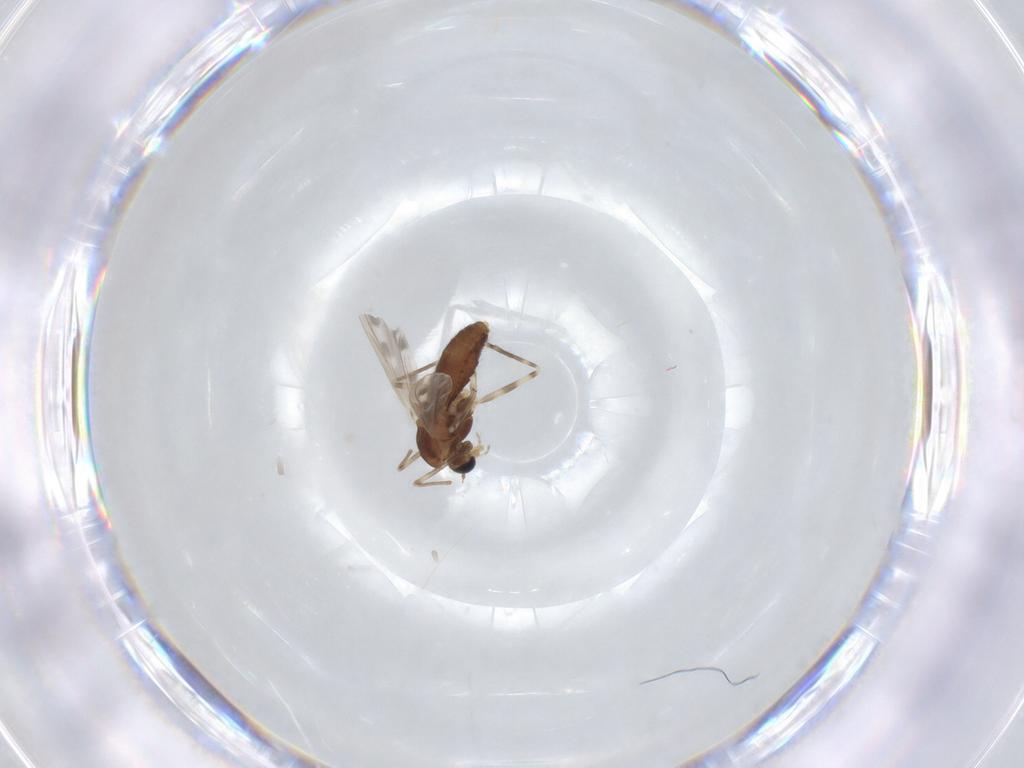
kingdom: Animalia
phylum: Arthropoda
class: Insecta
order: Diptera
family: Chironomidae
